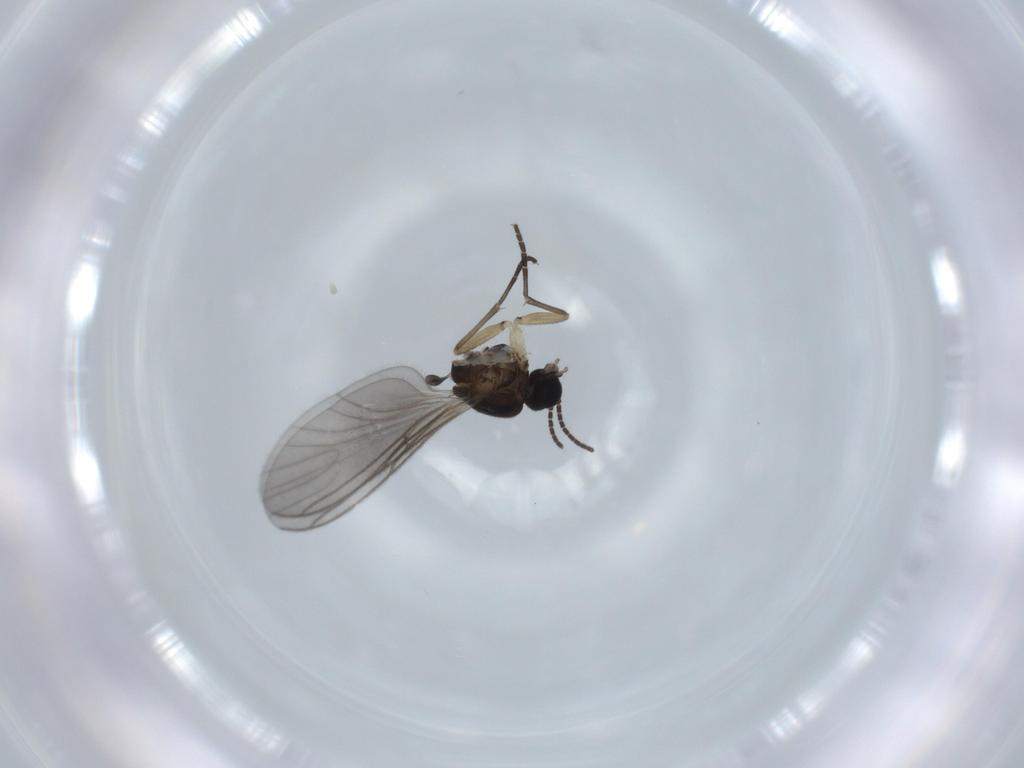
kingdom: Animalia
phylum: Arthropoda
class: Insecta
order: Diptera
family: Sciaridae
